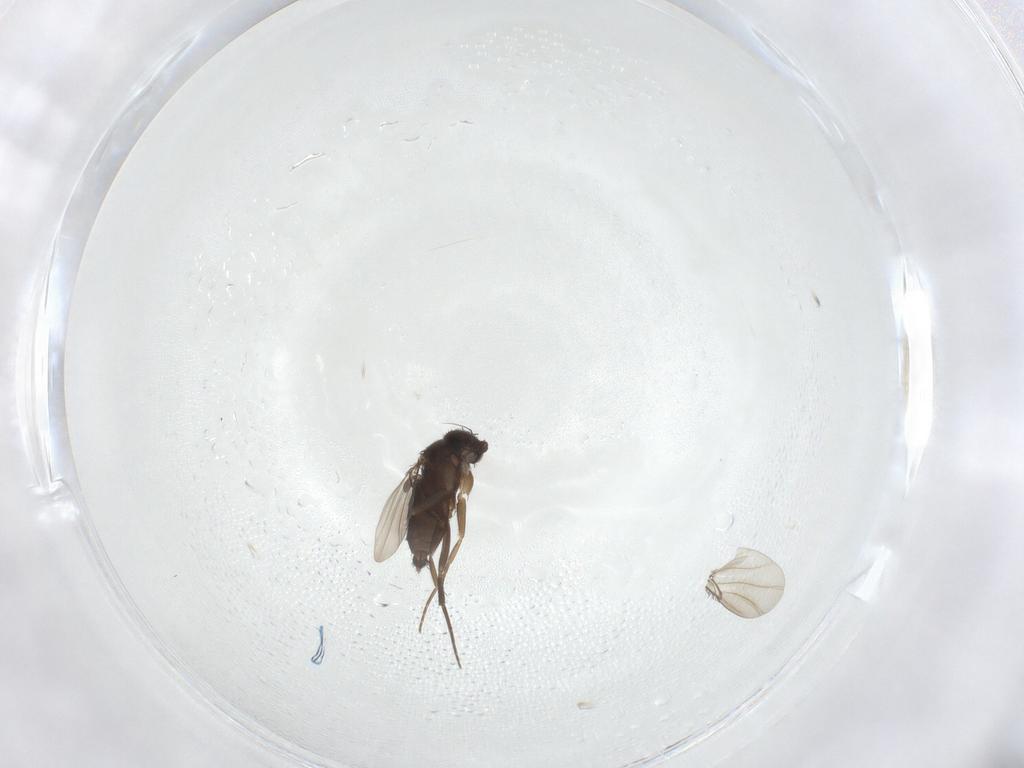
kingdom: Animalia
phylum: Arthropoda
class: Insecta
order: Diptera
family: Phoridae
